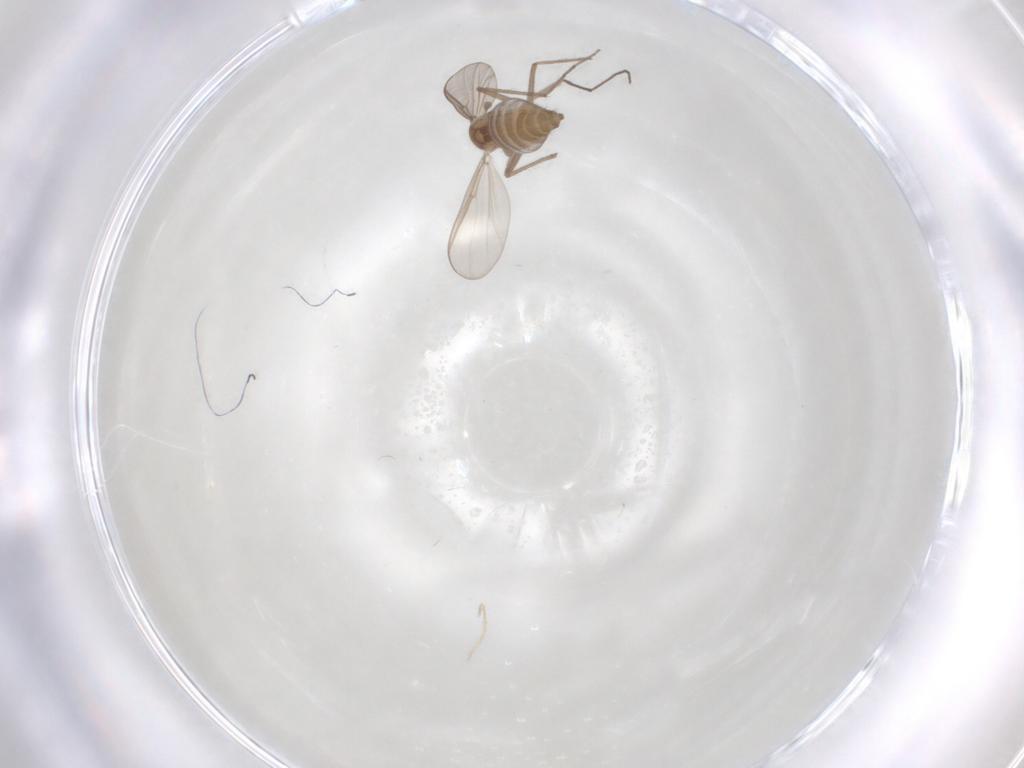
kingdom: Animalia
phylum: Arthropoda
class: Insecta
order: Diptera
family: Chironomidae
